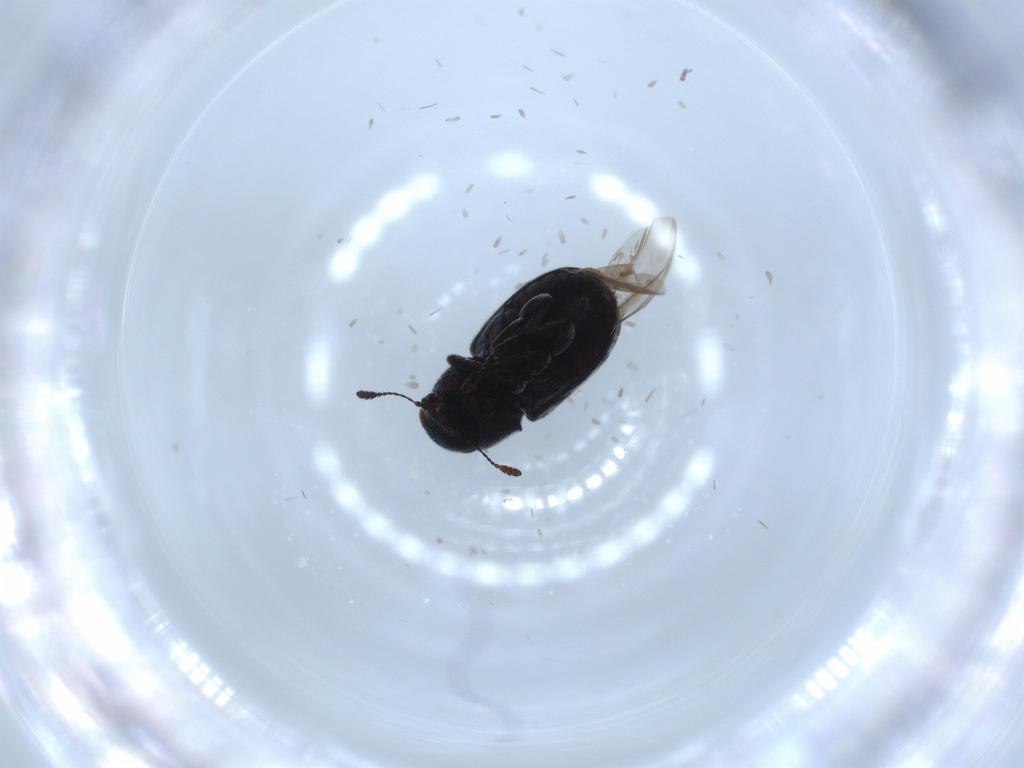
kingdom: Animalia
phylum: Arthropoda
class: Insecta
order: Coleoptera
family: Anthribidae
